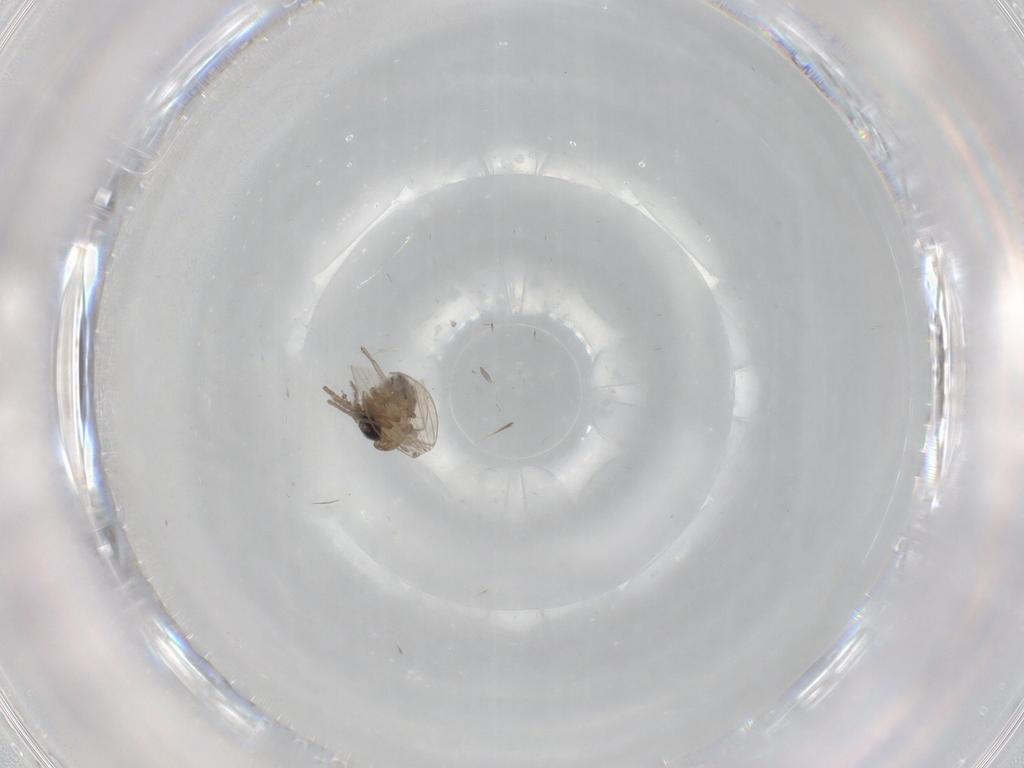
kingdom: Animalia
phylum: Arthropoda
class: Insecta
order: Diptera
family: Psychodidae
